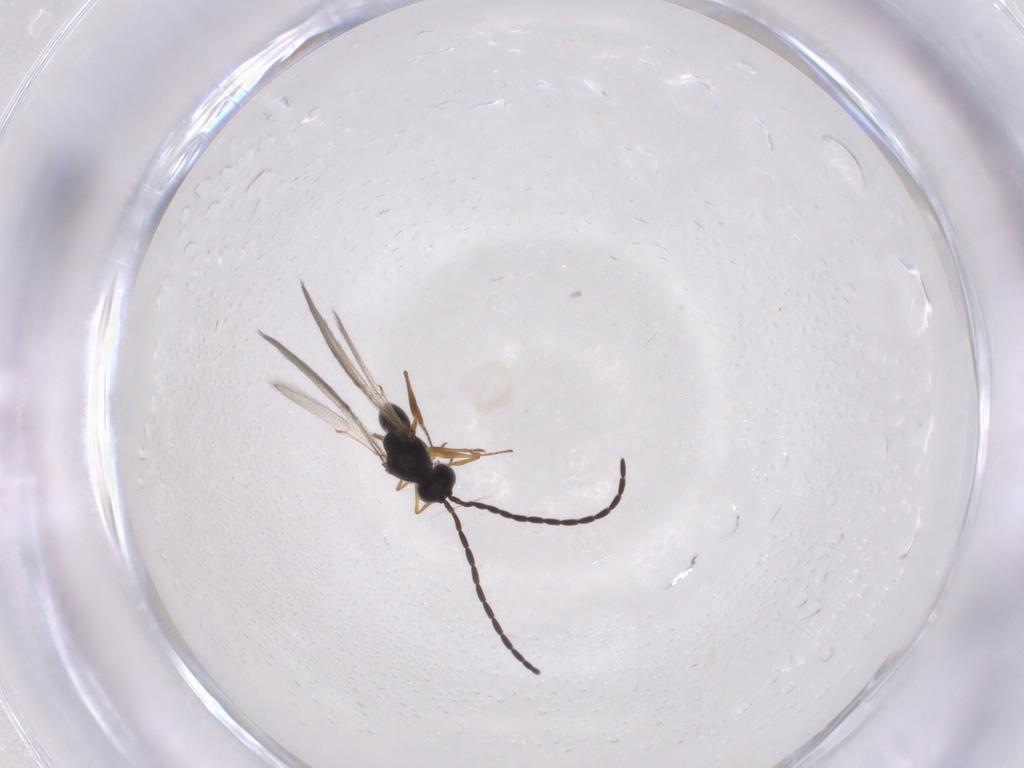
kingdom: Animalia
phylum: Arthropoda
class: Insecta
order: Hymenoptera
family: Figitidae
